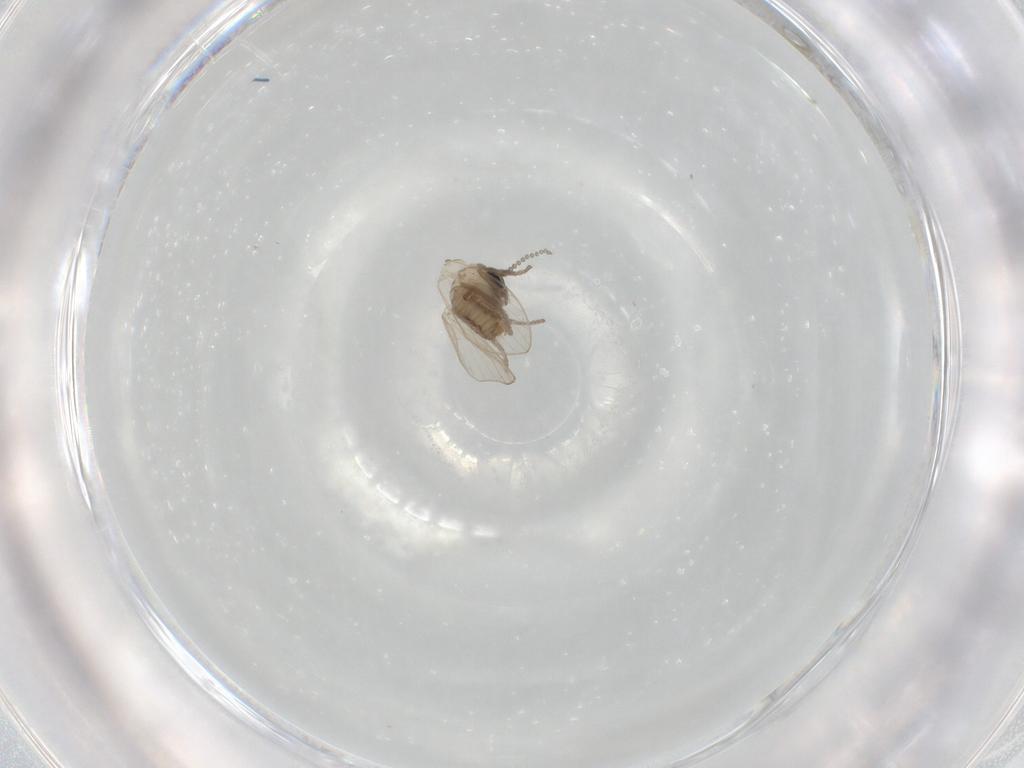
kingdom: Animalia
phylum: Arthropoda
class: Insecta
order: Diptera
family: Psychodidae
